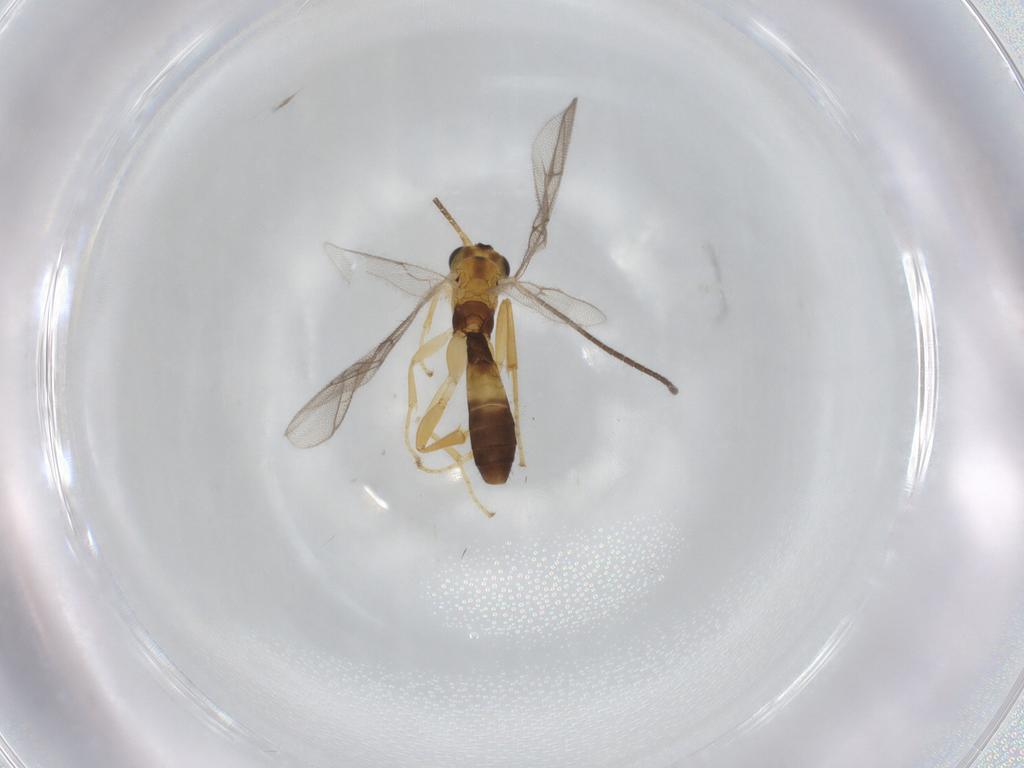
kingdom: Animalia
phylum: Arthropoda
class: Insecta
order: Hymenoptera
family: Ichneumonidae
